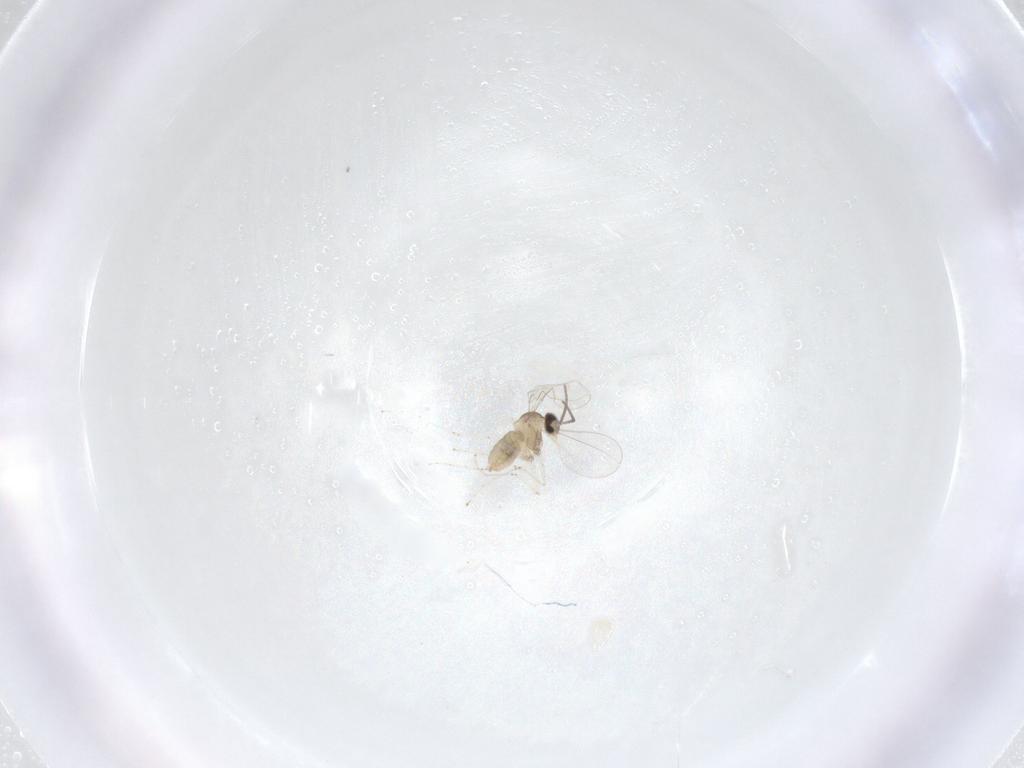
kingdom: Animalia
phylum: Arthropoda
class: Insecta
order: Diptera
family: Cecidomyiidae
